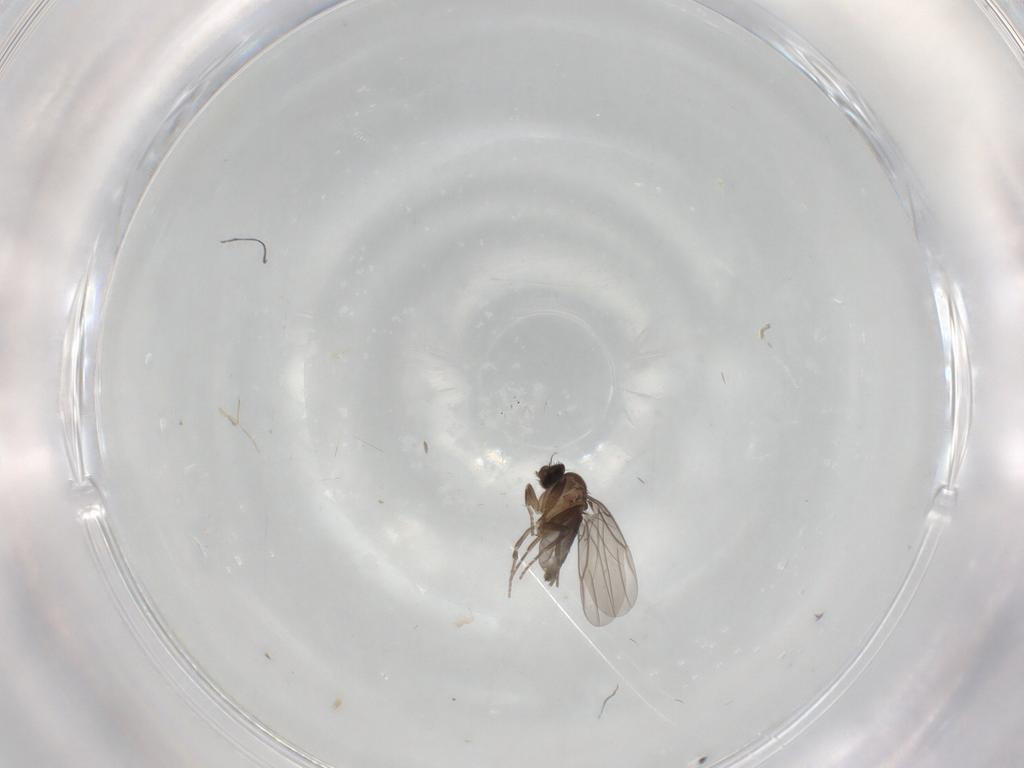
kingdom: Animalia
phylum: Arthropoda
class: Insecta
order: Diptera
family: Phoridae
